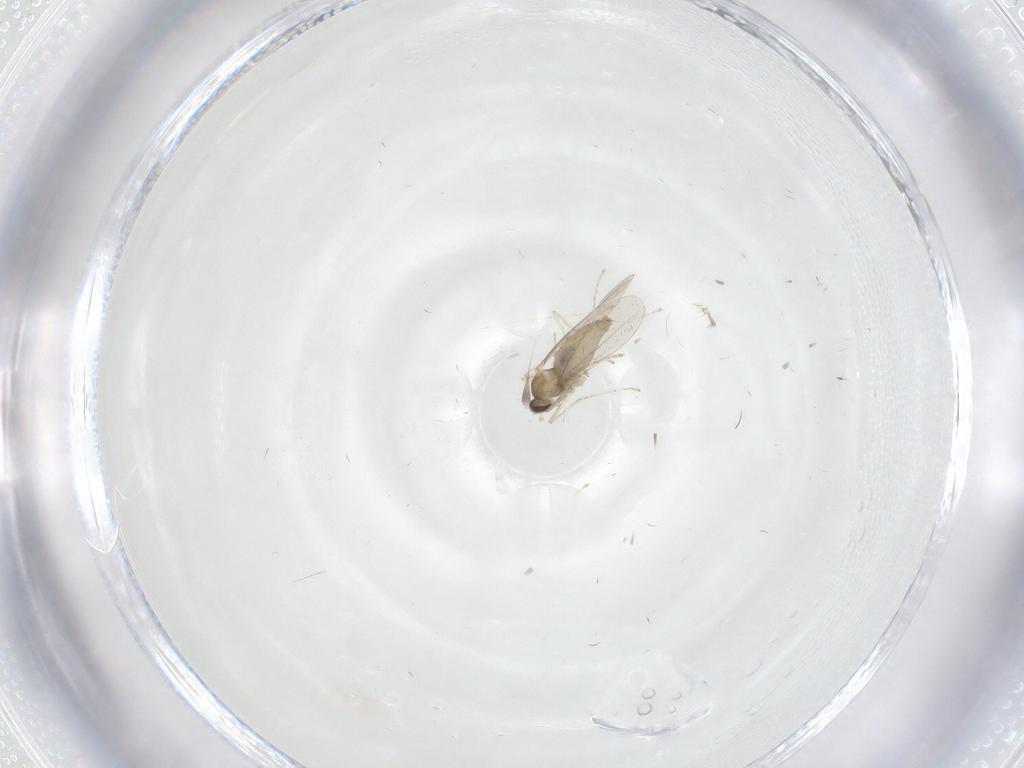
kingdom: Animalia
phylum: Arthropoda
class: Insecta
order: Diptera
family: Cecidomyiidae
